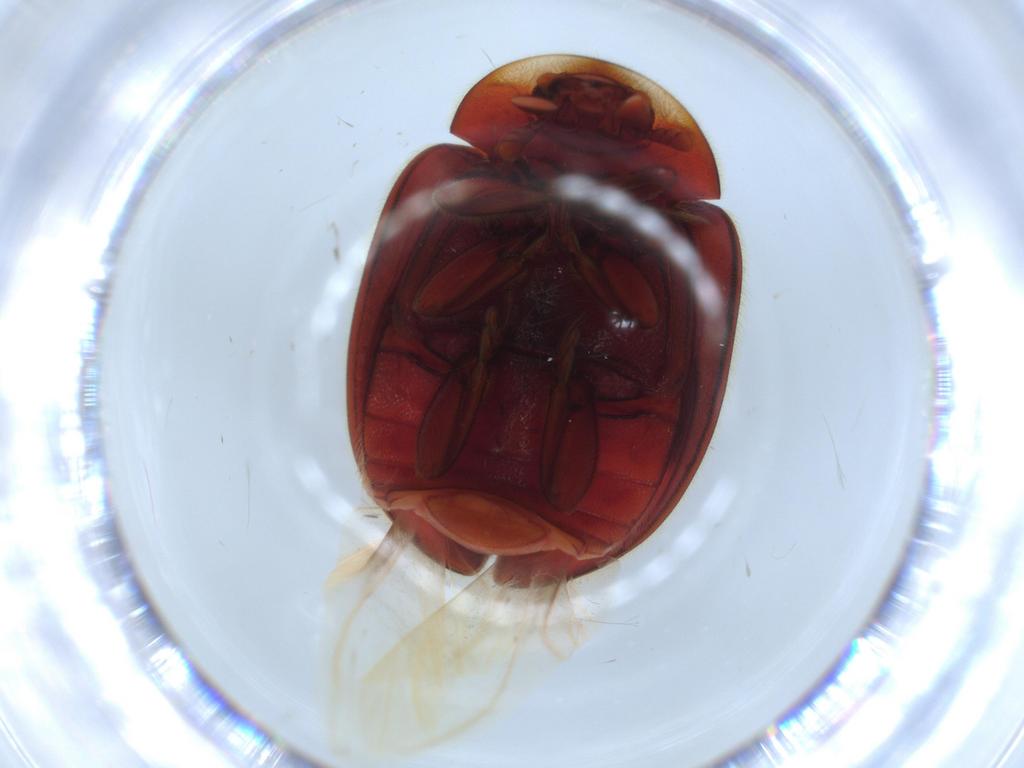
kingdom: Animalia
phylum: Arthropoda
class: Insecta
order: Coleoptera
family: Coccinellidae
